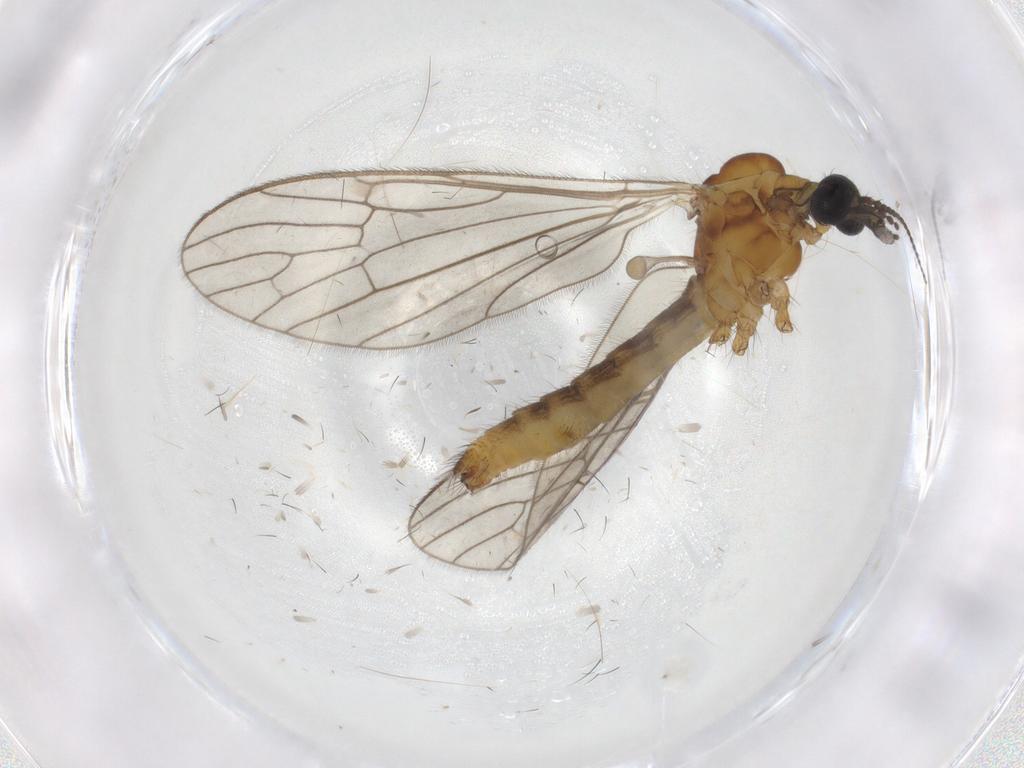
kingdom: Animalia
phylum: Arthropoda
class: Insecta
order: Diptera
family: Limoniidae
